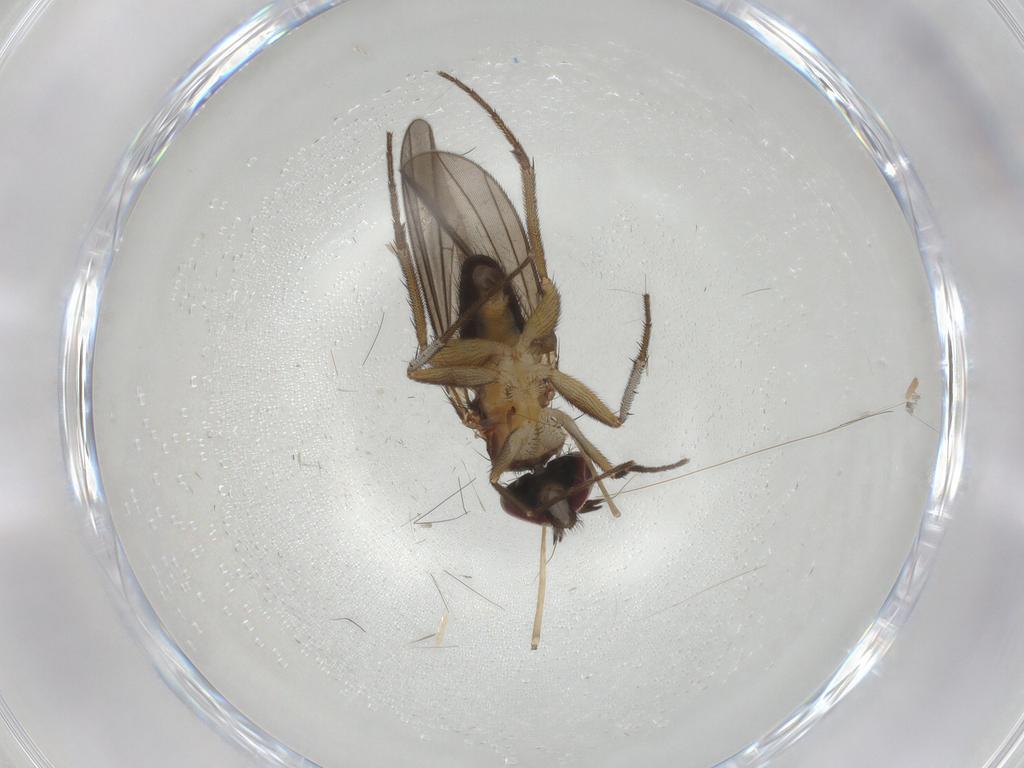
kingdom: Animalia
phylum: Arthropoda
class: Insecta
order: Diptera
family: Dolichopodidae
